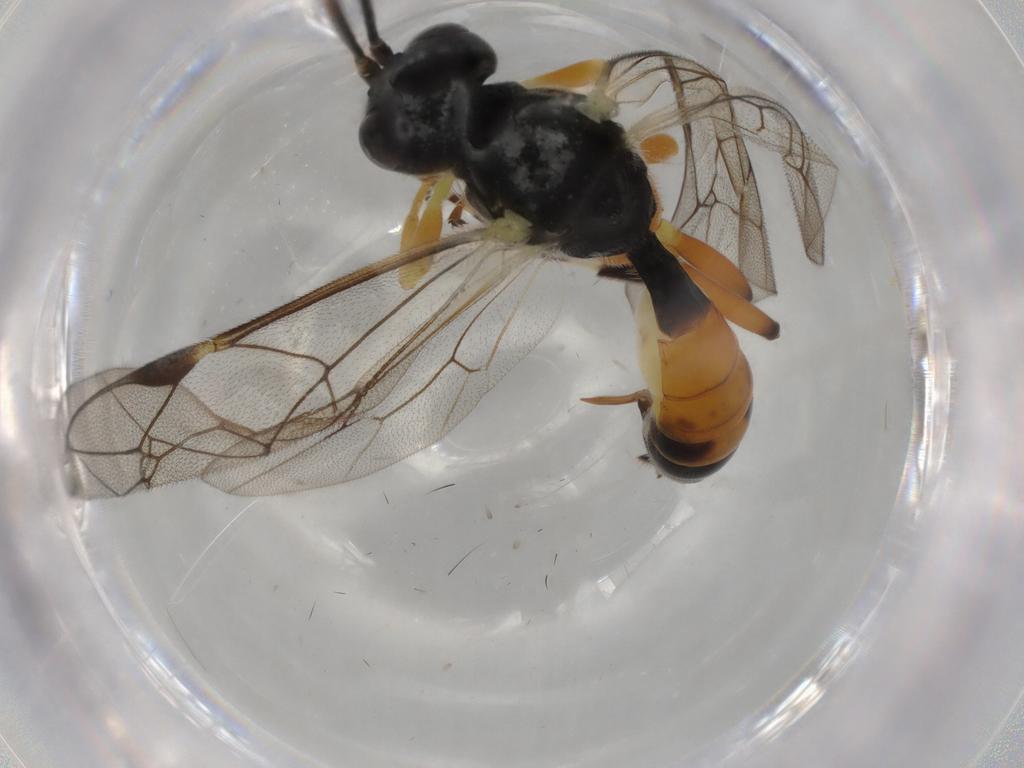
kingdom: Animalia
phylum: Arthropoda
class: Insecta
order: Hymenoptera
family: Ichneumonidae
